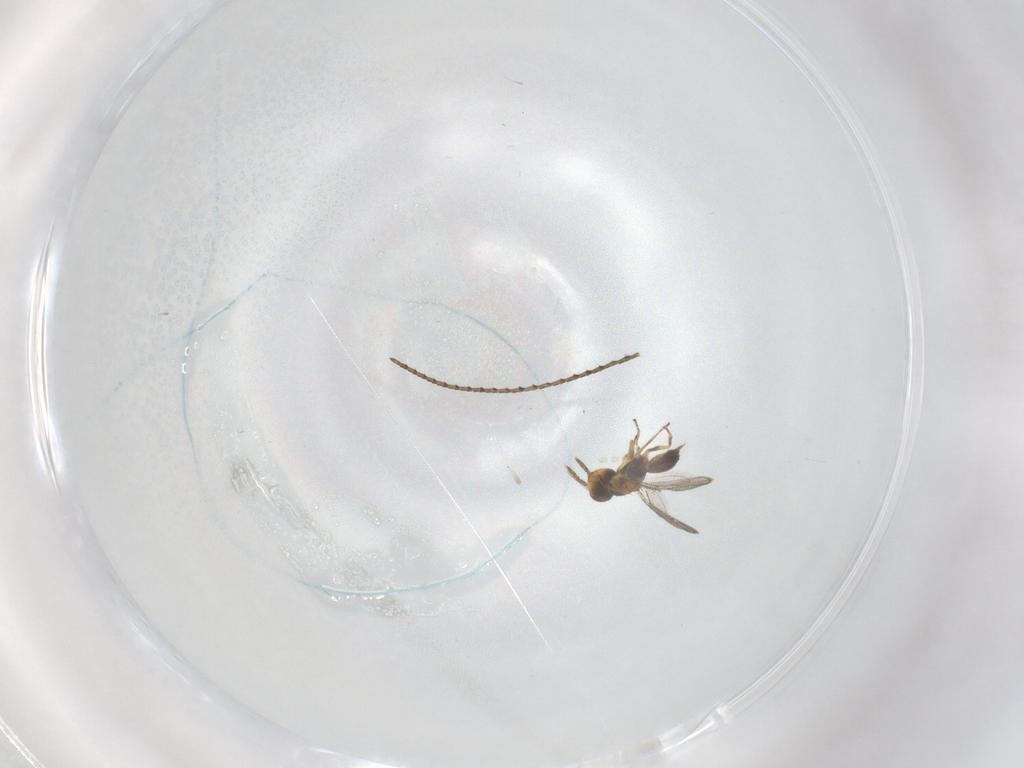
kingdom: Animalia
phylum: Arthropoda
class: Insecta
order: Hymenoptera
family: Eulophidae
